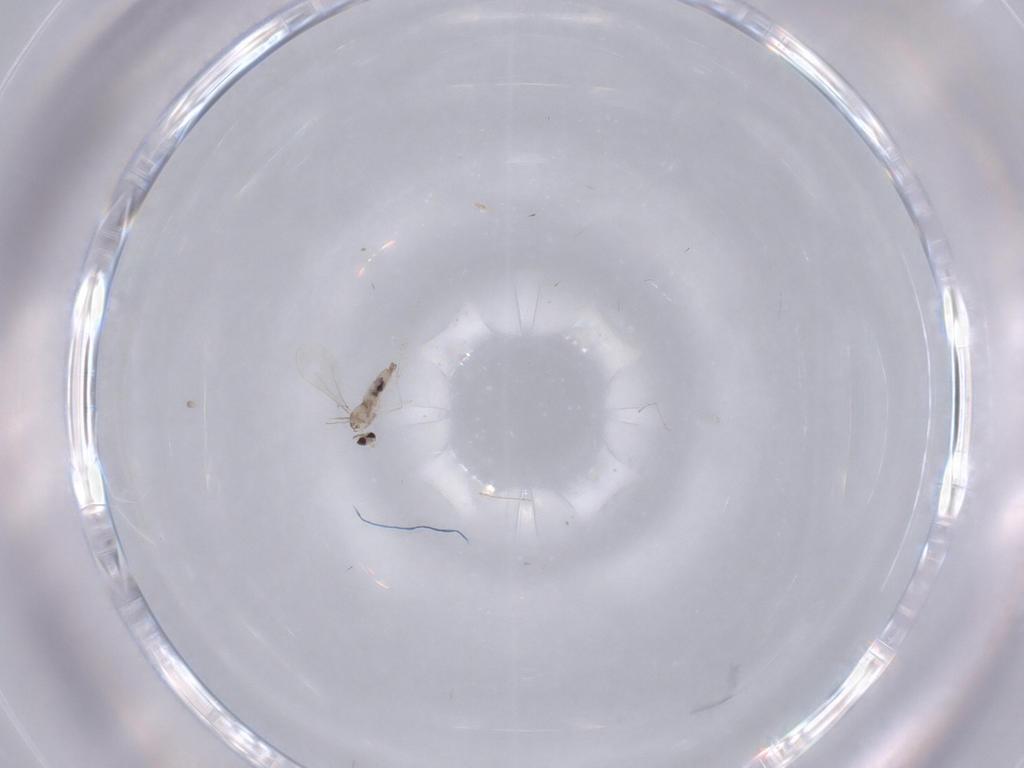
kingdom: Animalia
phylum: Arthropoda
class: Insecta
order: Diptera
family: Cecidomyiidae
